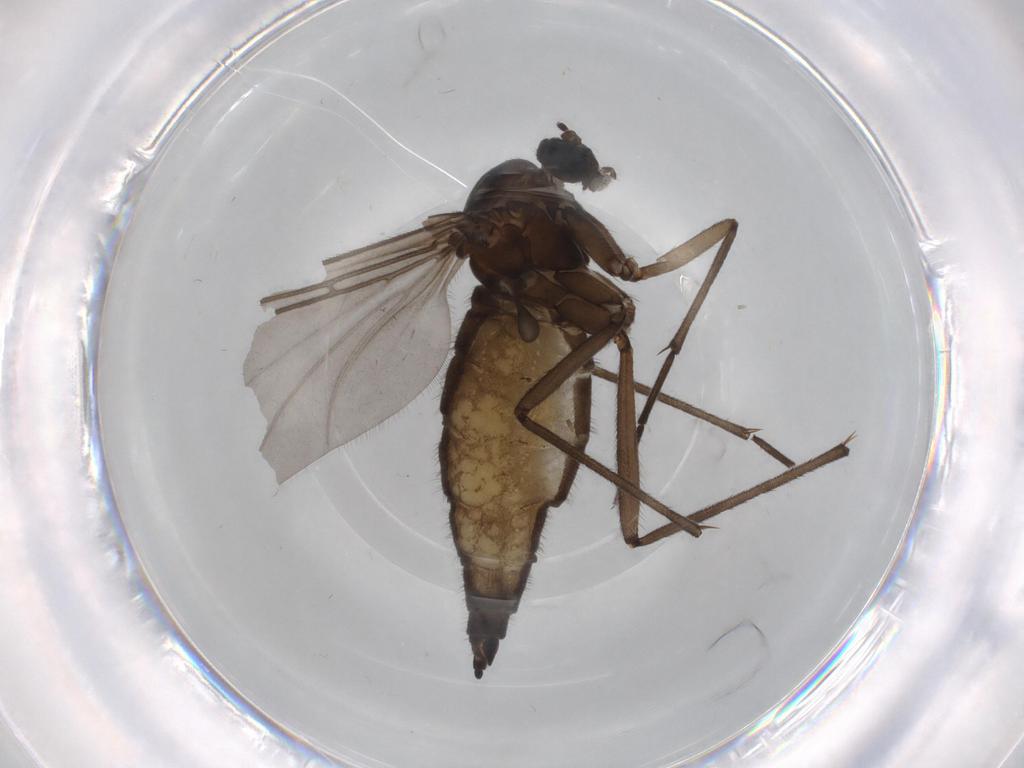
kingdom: Animalia
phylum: Arthropoda
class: Insecta
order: Diptera
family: Sciaridae
